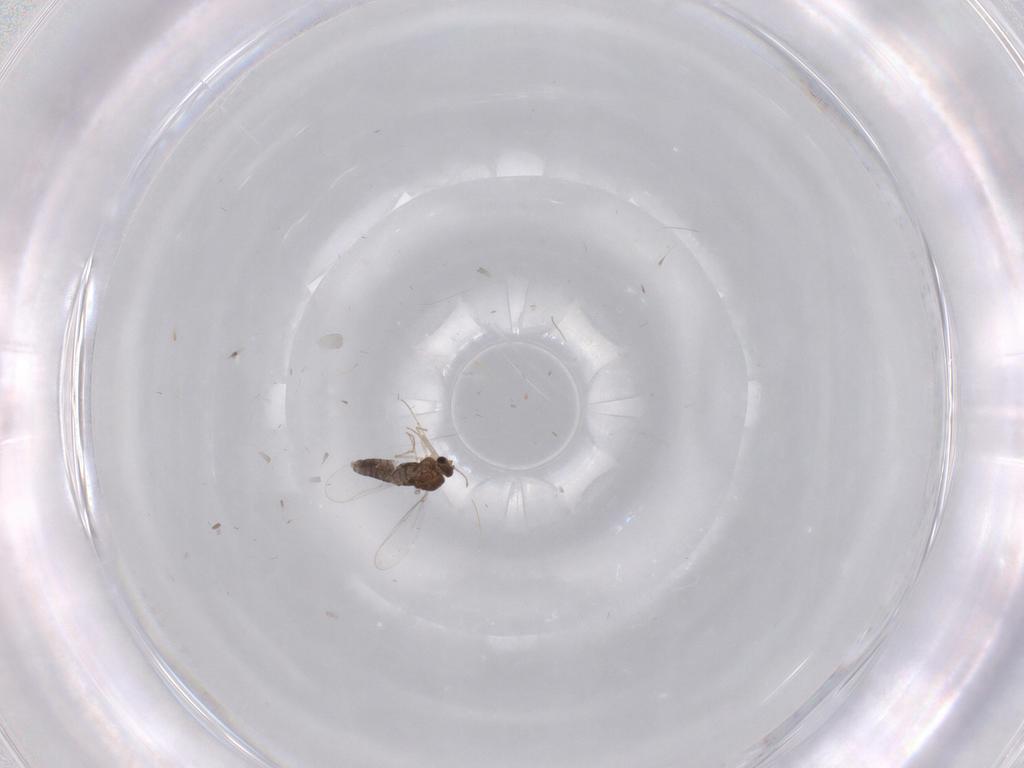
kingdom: Animalia
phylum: Arthropoda
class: Insecta
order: Diptera
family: Chironomidae
